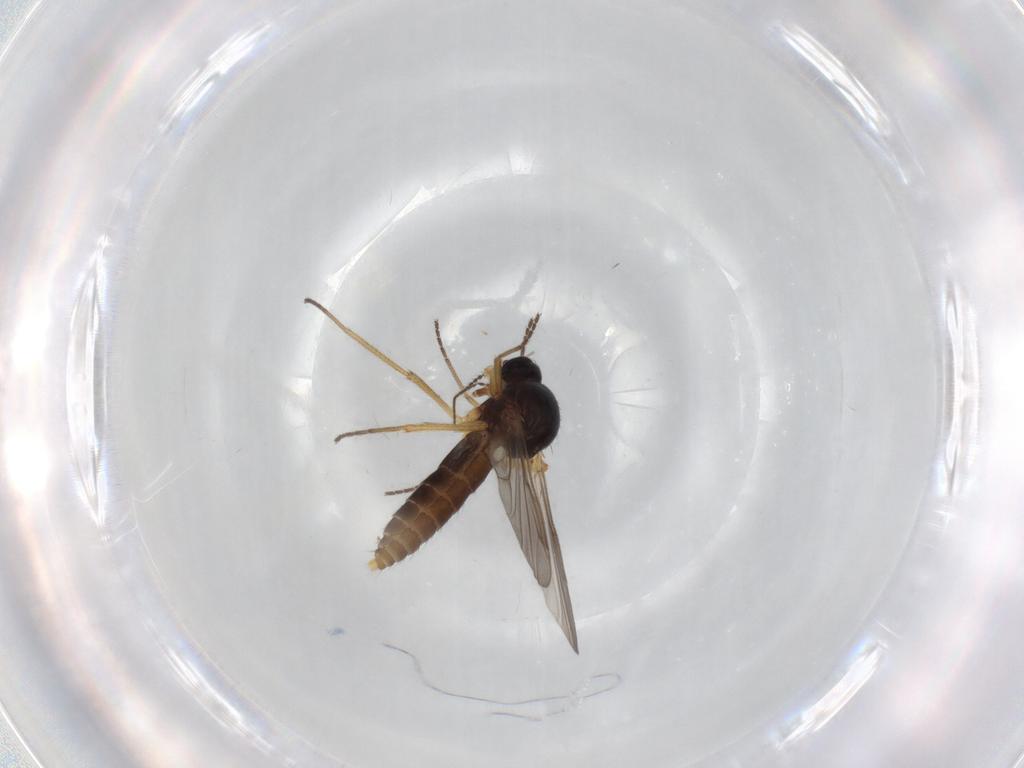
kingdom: Animalia
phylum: Arthropoda
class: Insecta
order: Diptera
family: Ceratopogonidae
